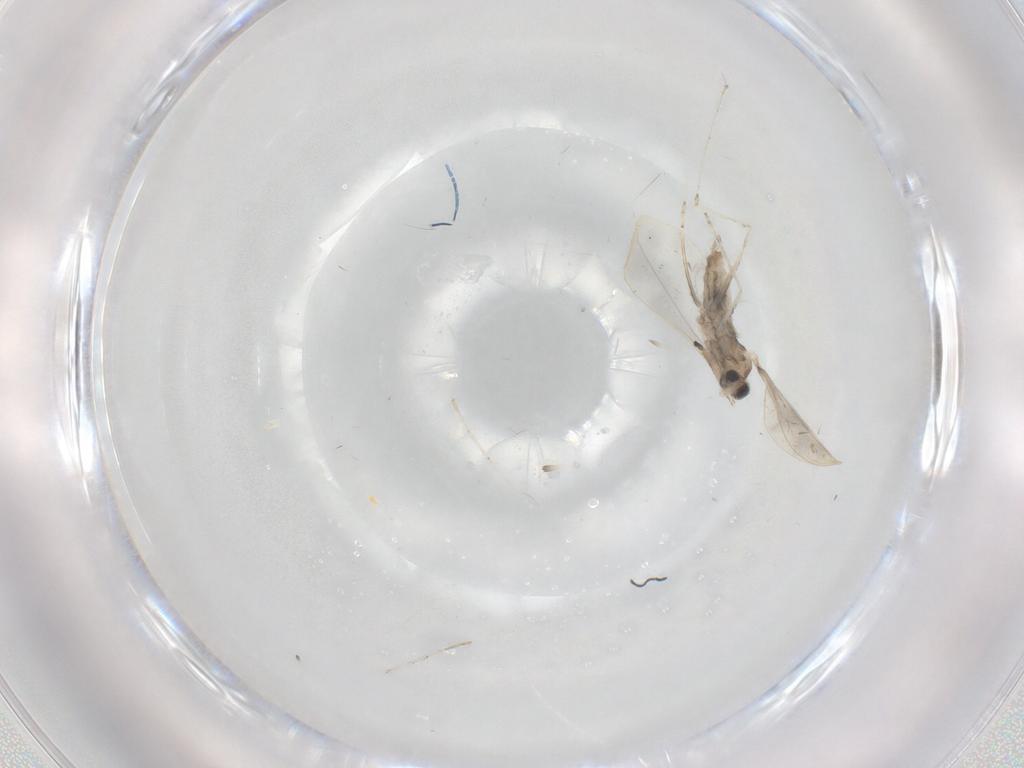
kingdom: Animalia
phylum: Arthropoda
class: Insecta
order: Diptera
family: Cecidomyiidae
